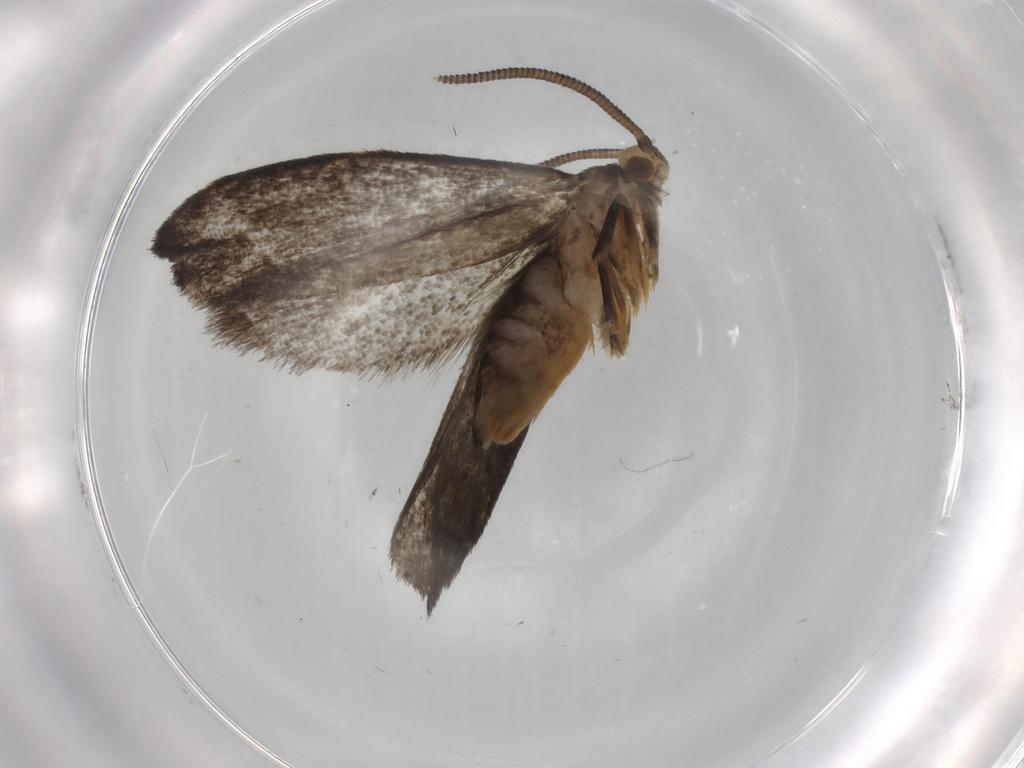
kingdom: Animalia
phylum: Arthropoda
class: Insecta
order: Lepidoptera
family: Dryadaulidae
